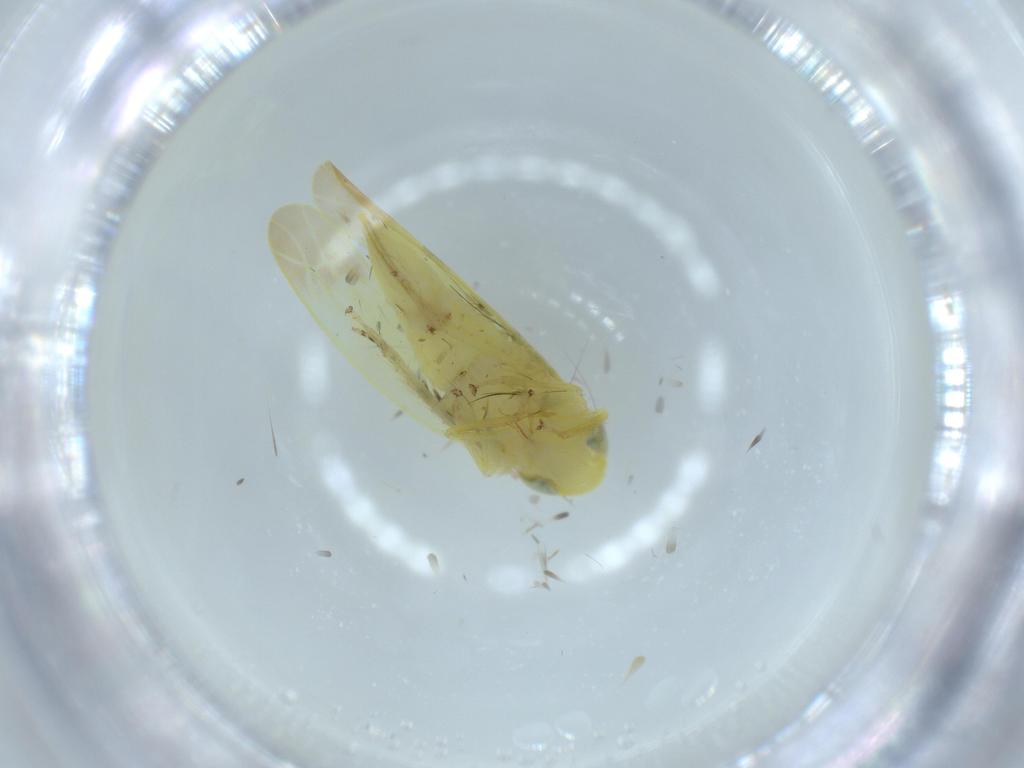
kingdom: Animalia
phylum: Arthropoda
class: Insecta
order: Hemiptera
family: Cicadellidae
